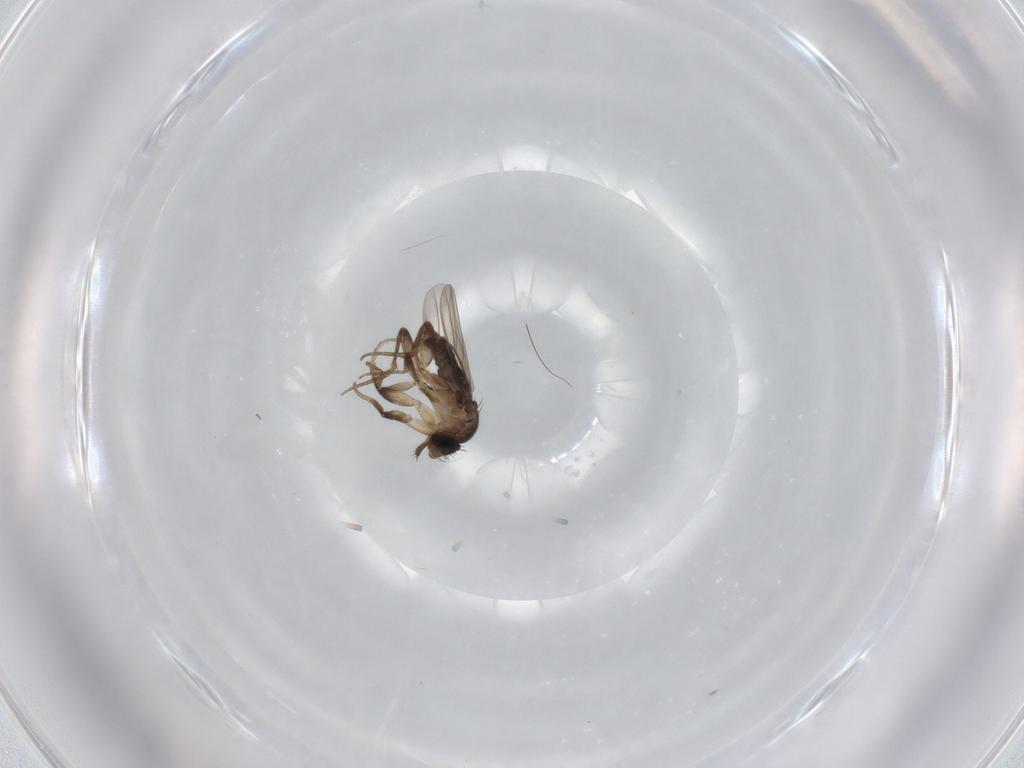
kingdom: Animalia
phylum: Arthropoda
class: Insecta
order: Diptera
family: Phoridae
